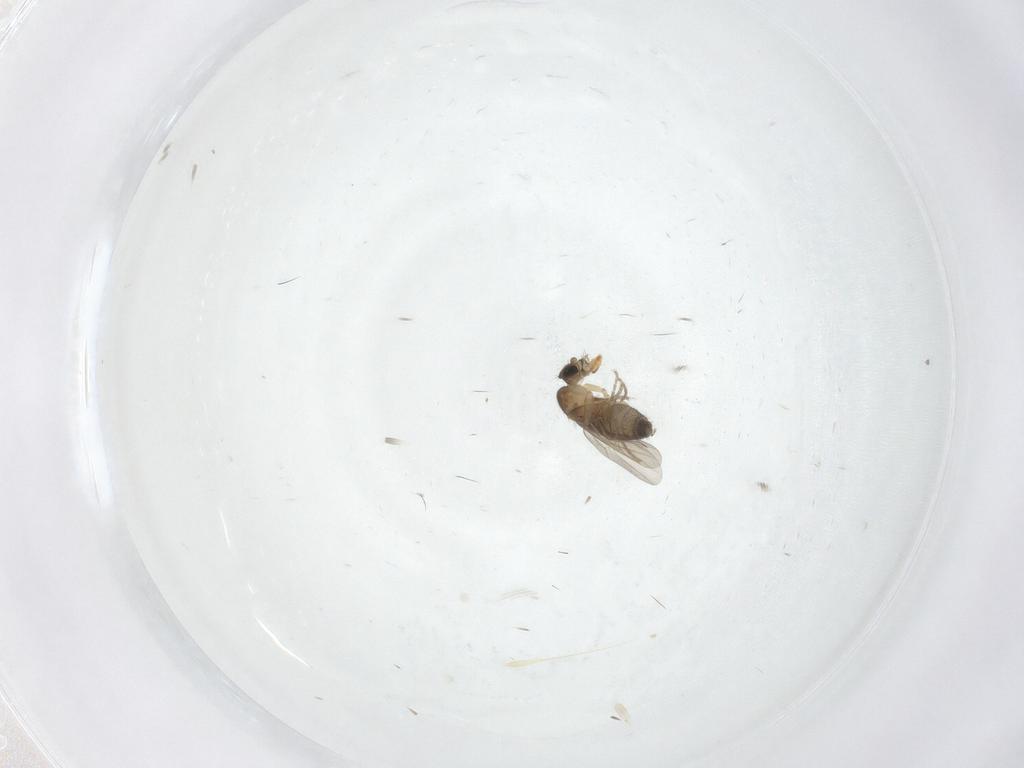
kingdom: Animalia
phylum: Arthropoda
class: Insecta
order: Diptera
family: Phoridae
